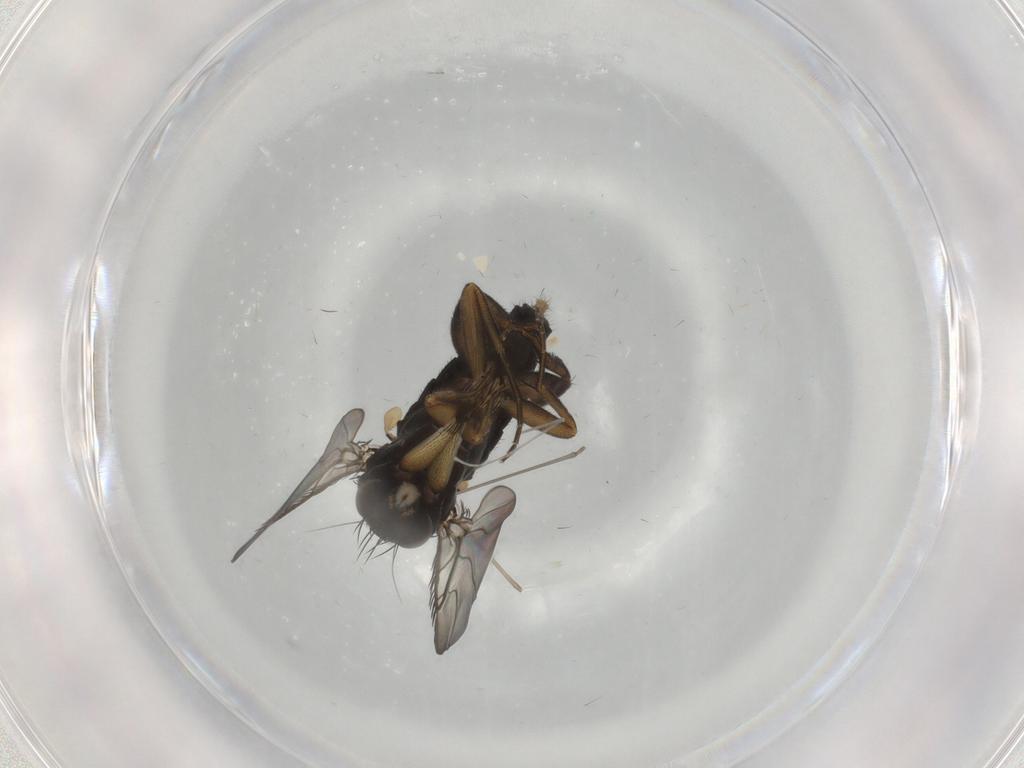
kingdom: Animalia
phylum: Arthropoda
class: Insecta
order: Diptera
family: Phoridae
